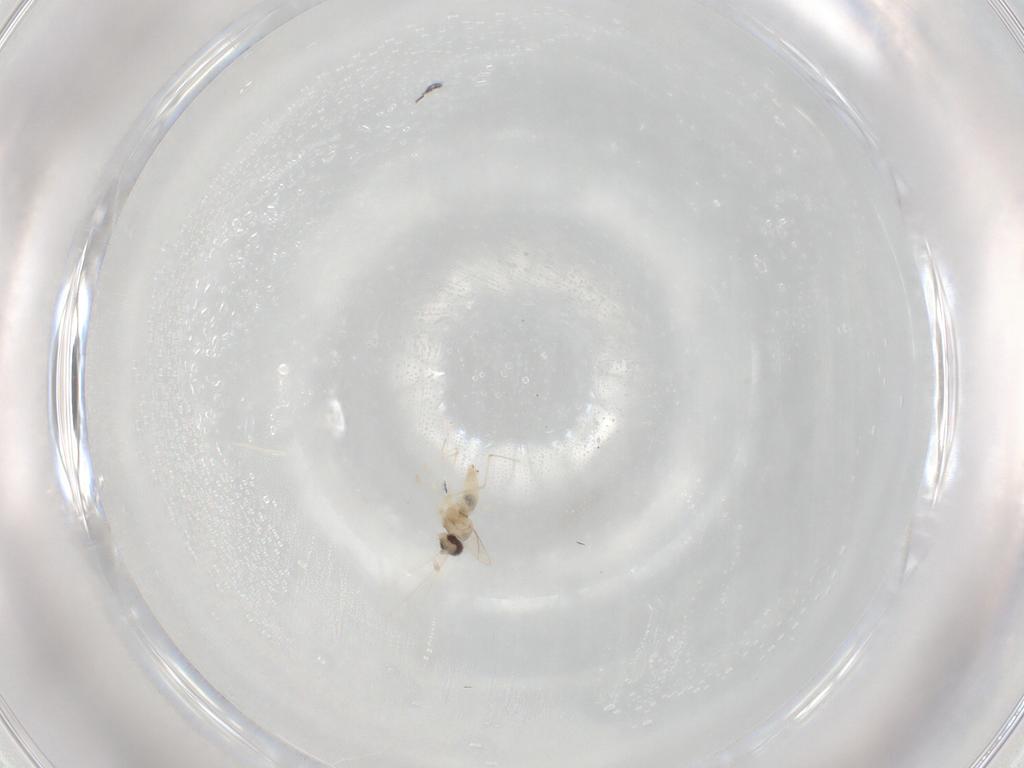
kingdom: Animalia
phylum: Arthropoda
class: Insecta
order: Diptera
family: Cecidomyiidae
